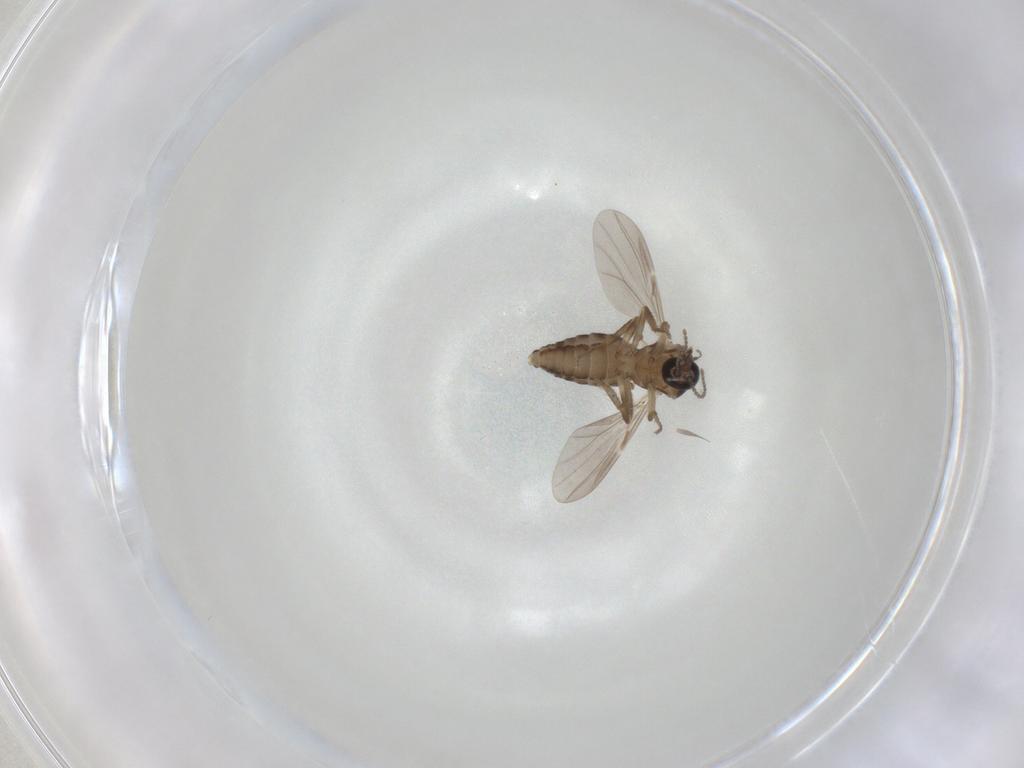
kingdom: Animalia
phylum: Arthropoda
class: Insecta
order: Diptera
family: Ceratopogonidae
